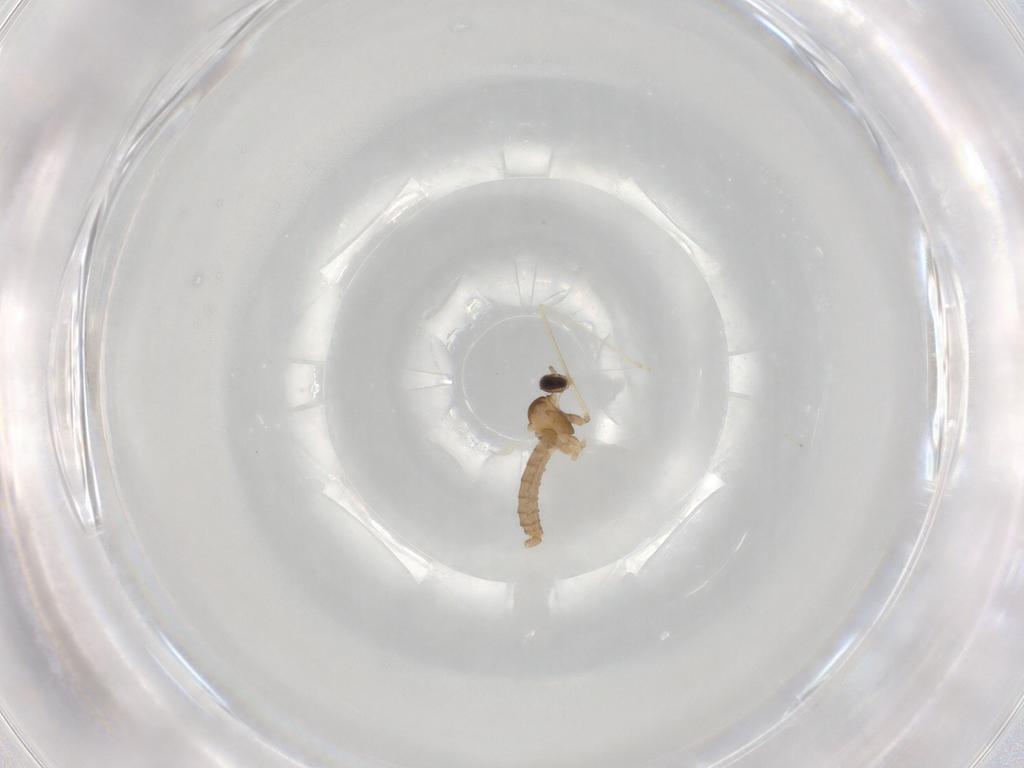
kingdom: Animalia
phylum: Arthropoda
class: Insecta
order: Diptera
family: Cecidomyiidae
